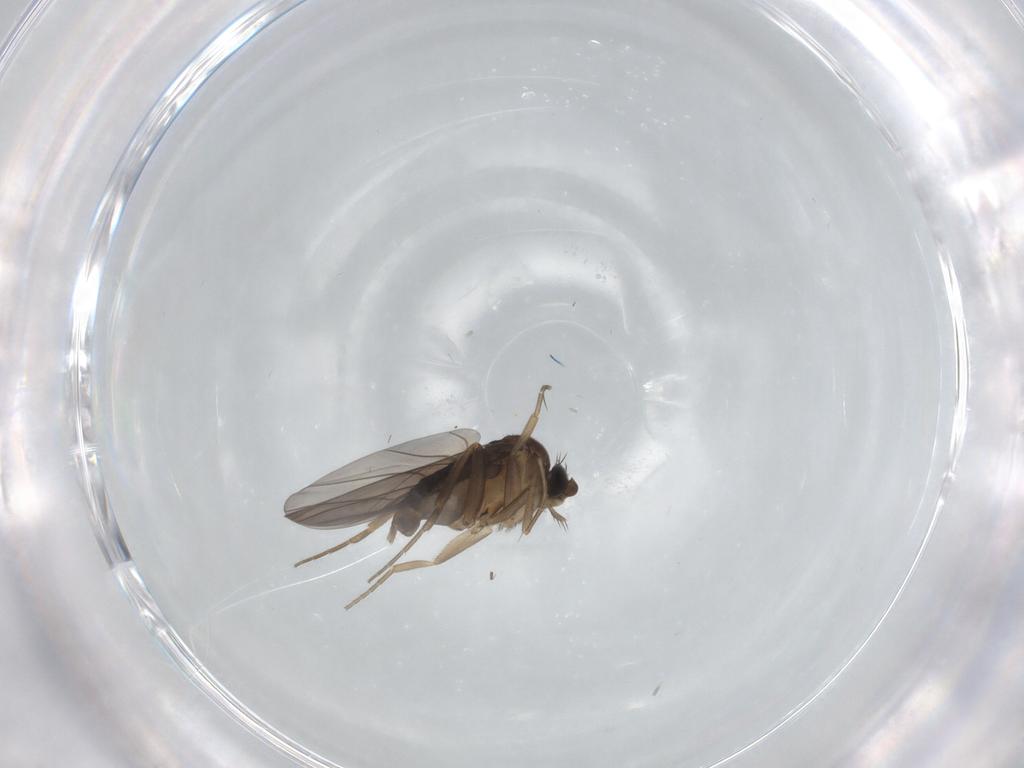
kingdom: Animalia
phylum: Arthropoda
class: Insecta
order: Diptera
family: Phoridae
